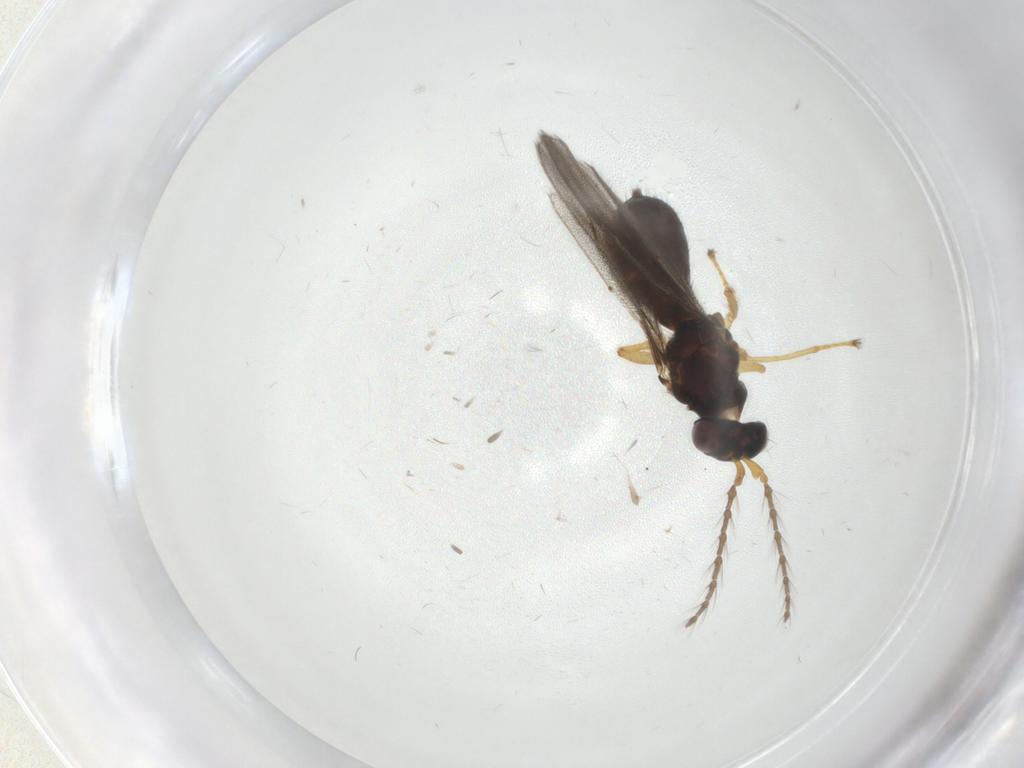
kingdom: Animalia
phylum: Arthropoda
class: Insecta
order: Hymenoptera
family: Eulophidae
